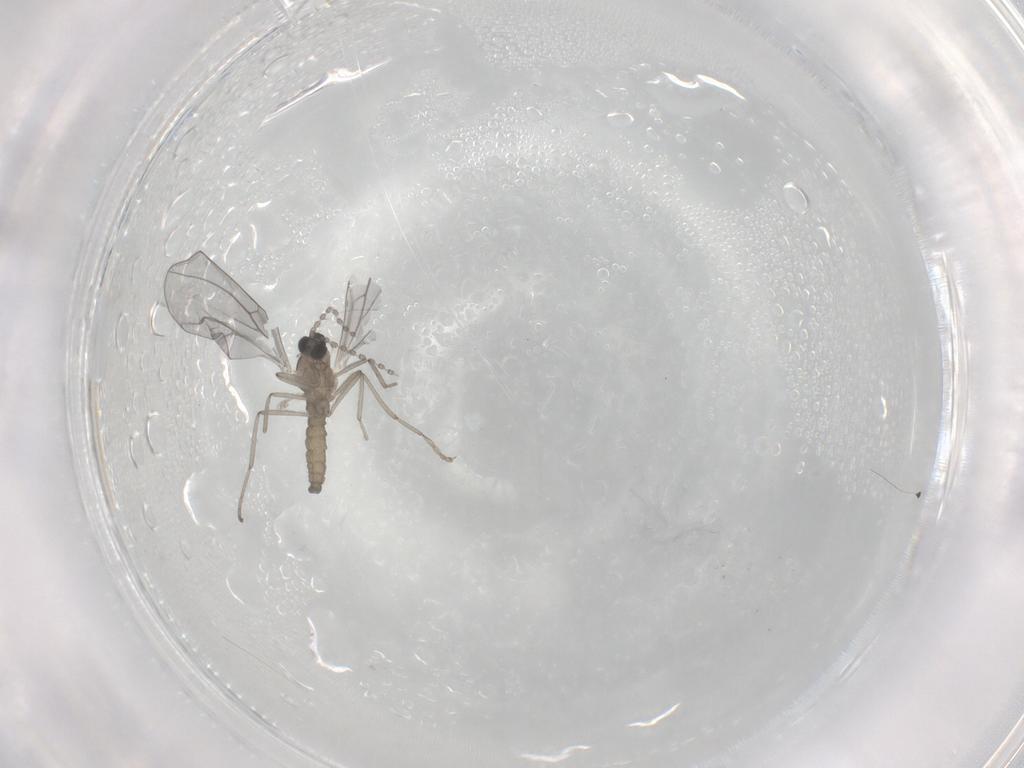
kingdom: Animalia
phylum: Arthropoda
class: Insecta
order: Diptera
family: Cecidomyiidae
